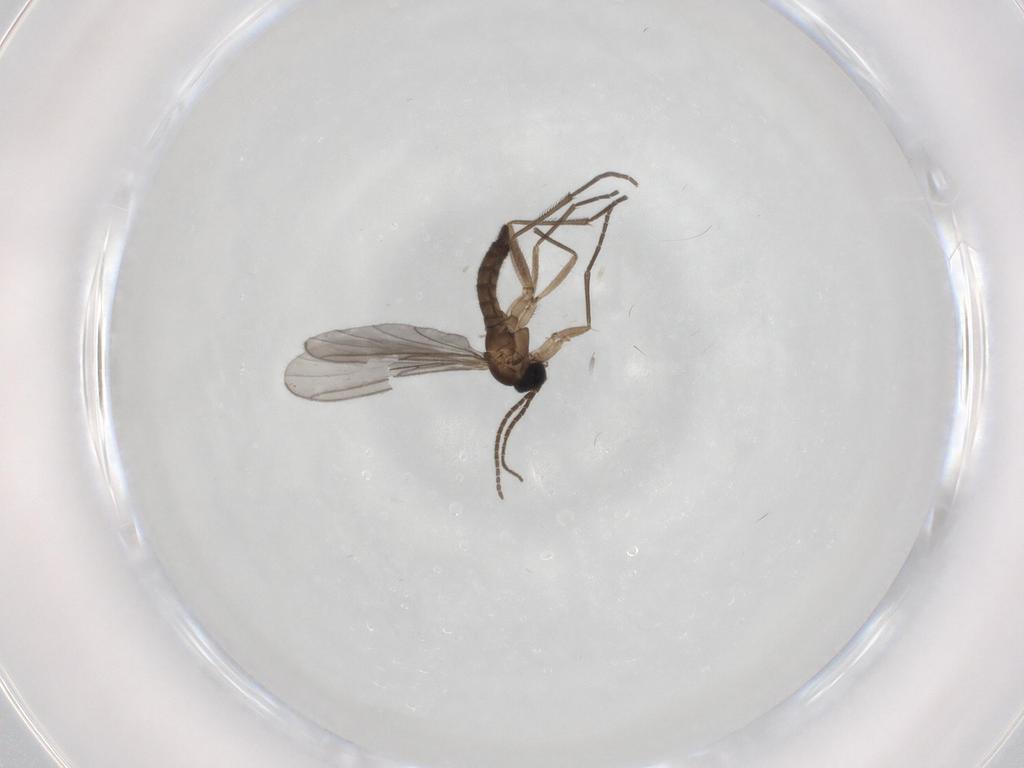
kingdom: Animalia
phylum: Arthropoda
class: Insecta
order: Diptera
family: Sciaridae
